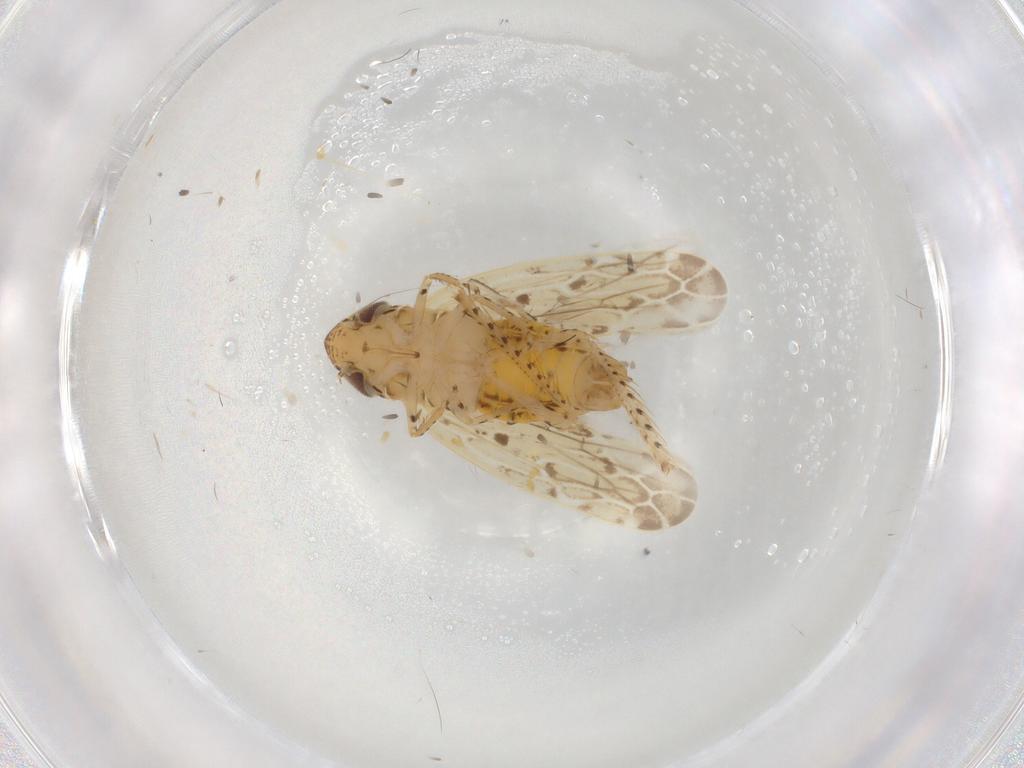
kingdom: Animalia
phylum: Arthropoda
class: Insecta
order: Hemiptera
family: Cicadellidae
